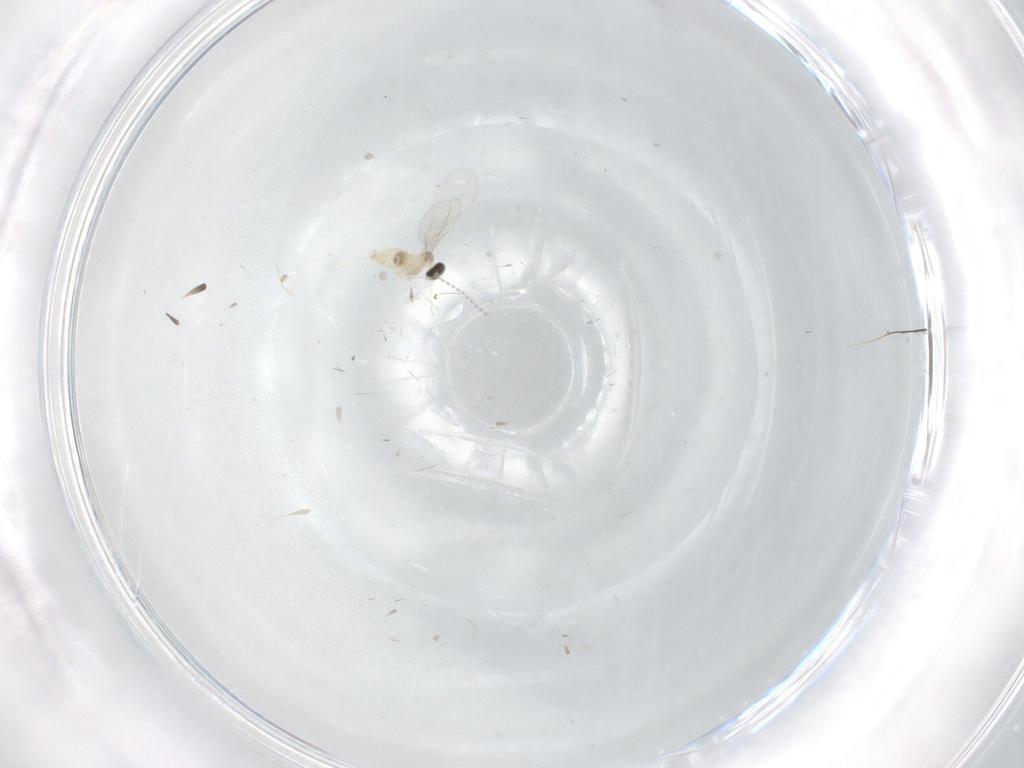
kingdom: Animalia
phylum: Arthropoda
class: Insecta
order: Diptera
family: Cecidomyiidae
